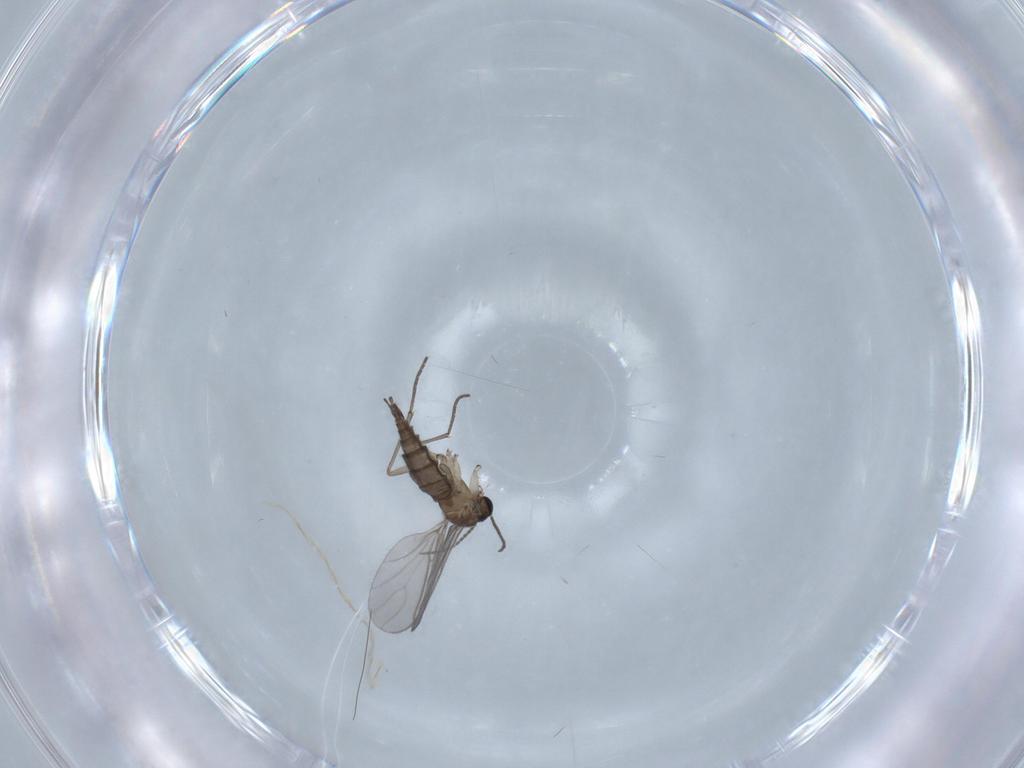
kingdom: Animalia
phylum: Arthropoda
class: Insecta
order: Diptera
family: Sciaridae
